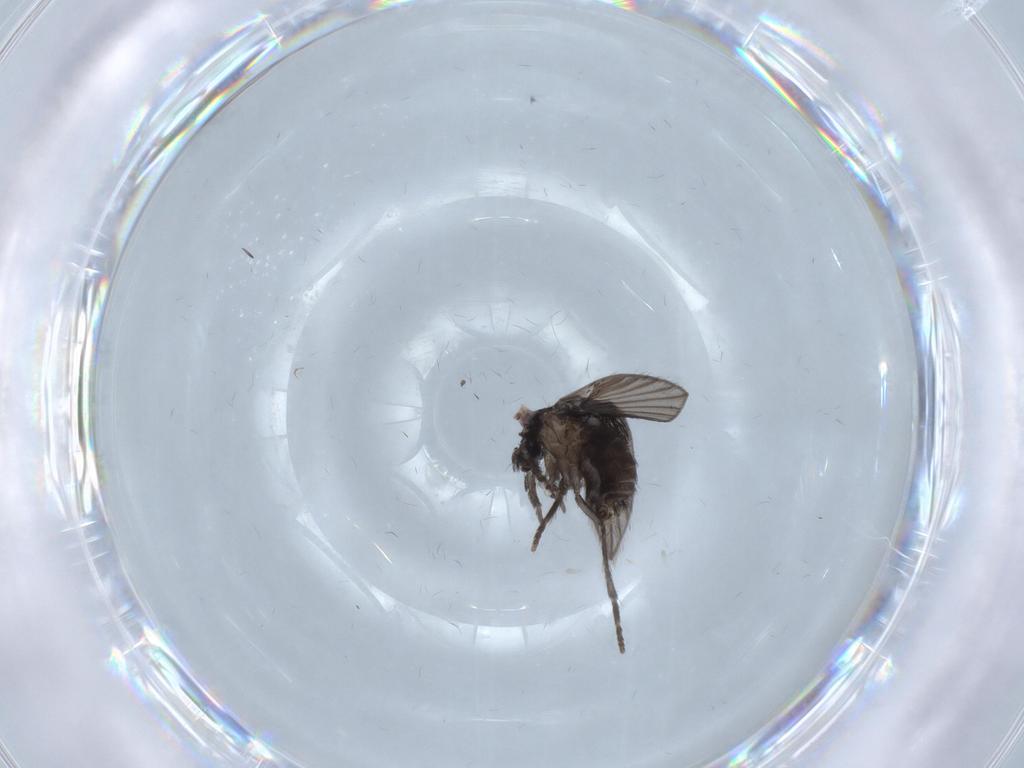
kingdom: Animalia
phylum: Arthropoda
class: Insecta
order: Diptera
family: Psychodidae
